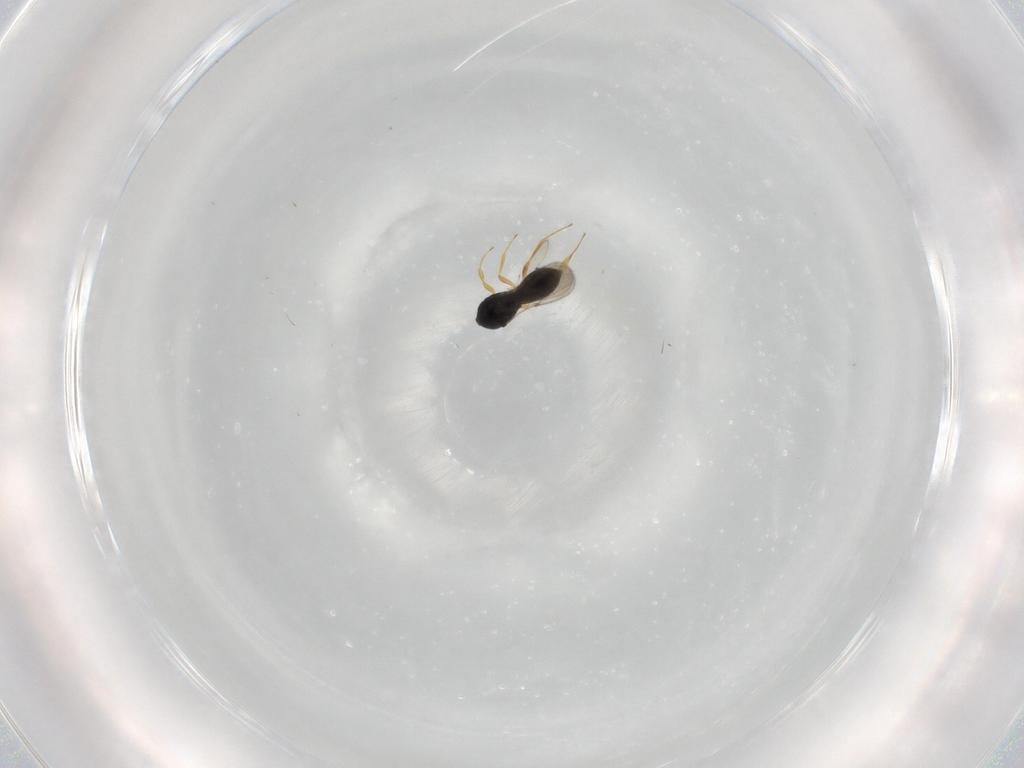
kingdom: Animalia
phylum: Arthropoda
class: Insecta
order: Hymenoptera
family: Scelionidae
